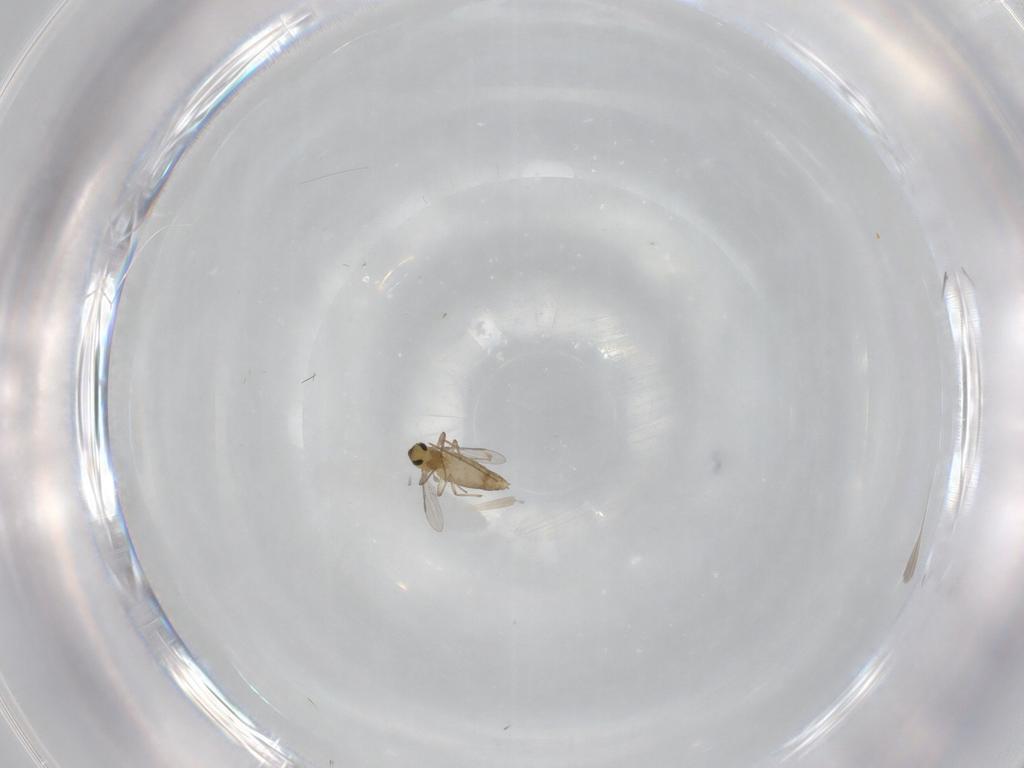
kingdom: Animalia
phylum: Arthropoda
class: Insecta
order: Diptera
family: Chironomidae
